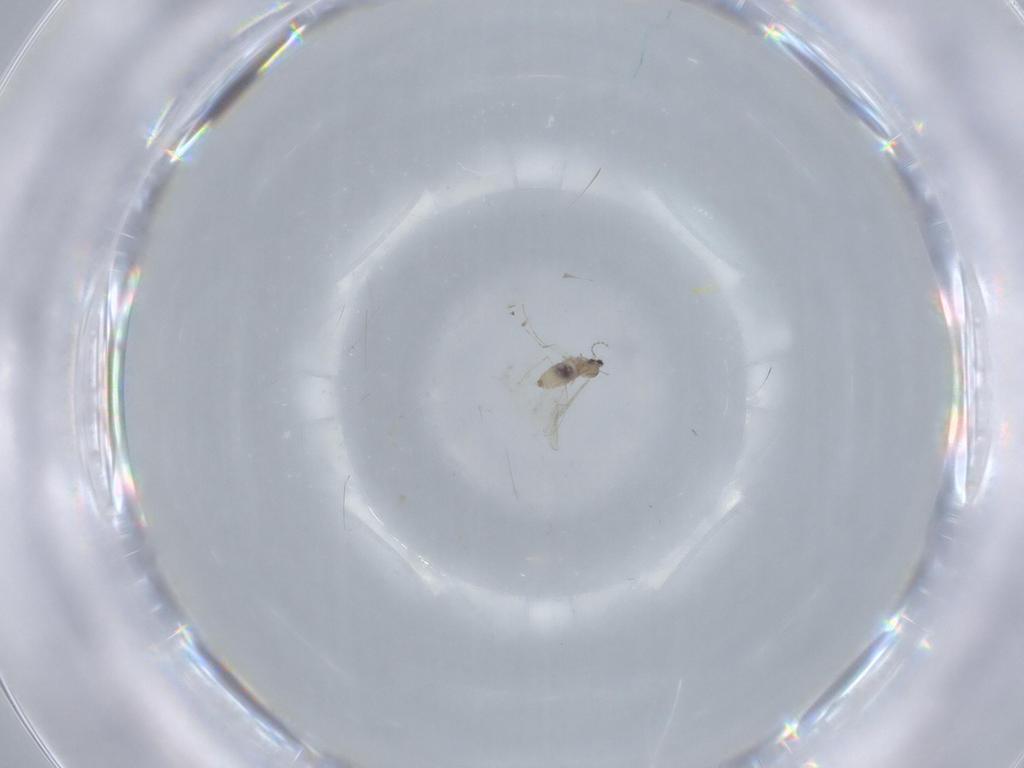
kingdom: Animalia
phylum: Arthropoda
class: Insecta
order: Diptera
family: Cecidomyiidae
